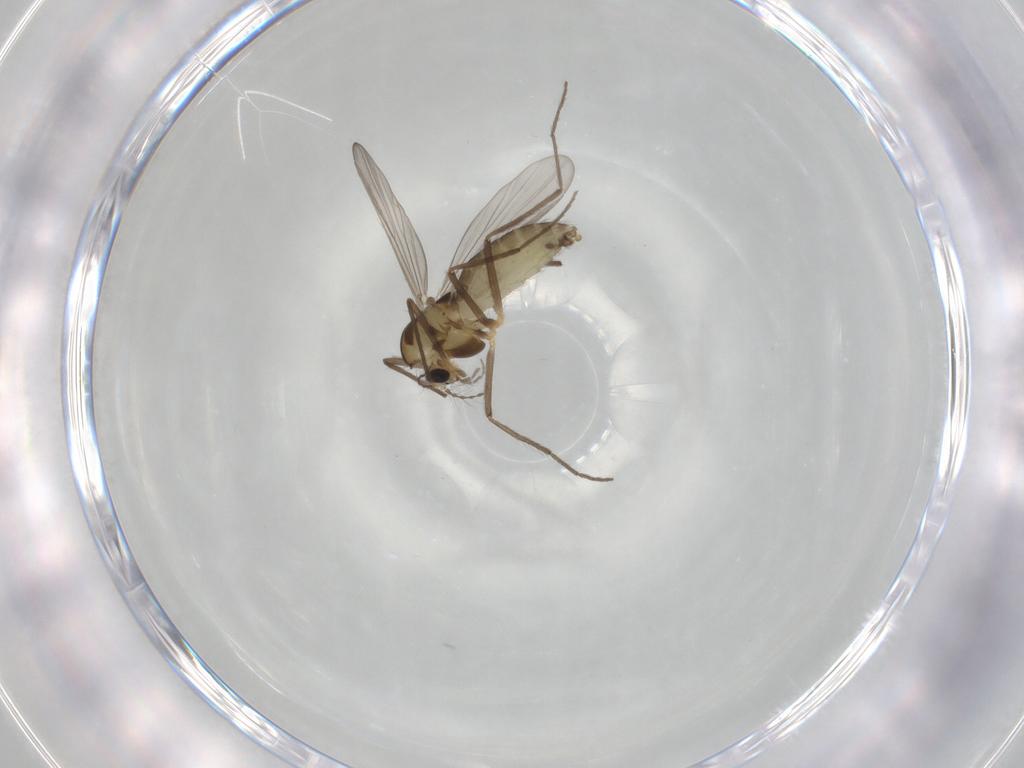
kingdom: Animalia
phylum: Arthropoda
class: Insecta
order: Diptera
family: Chironomidae
